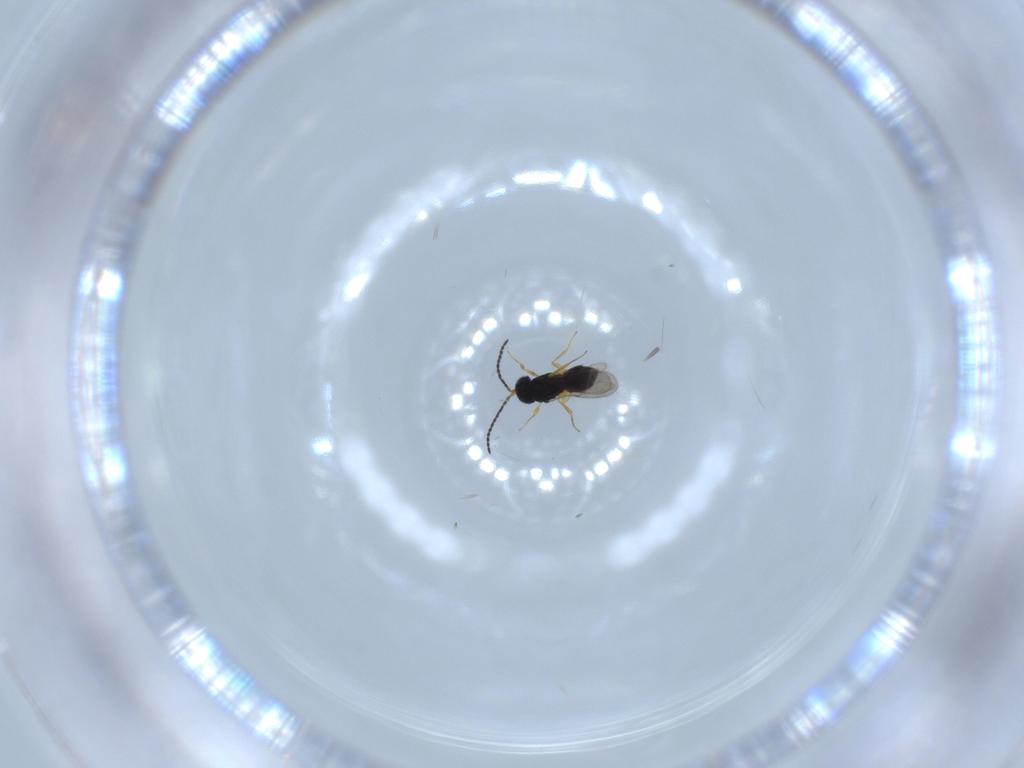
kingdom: Animalia
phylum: Arthropoda
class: Insecta
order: Hymenoptera
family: Scelionidae
